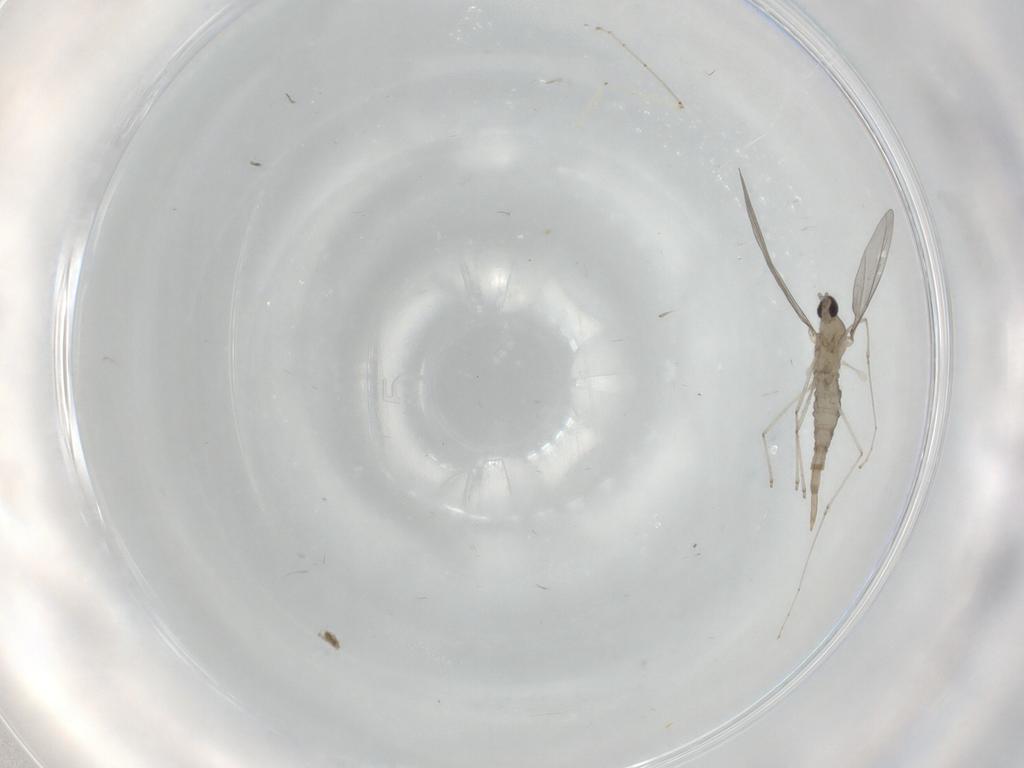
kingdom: Animalia
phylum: Arthropoda
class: Insecta
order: Diptera
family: Cecidomyiidae
